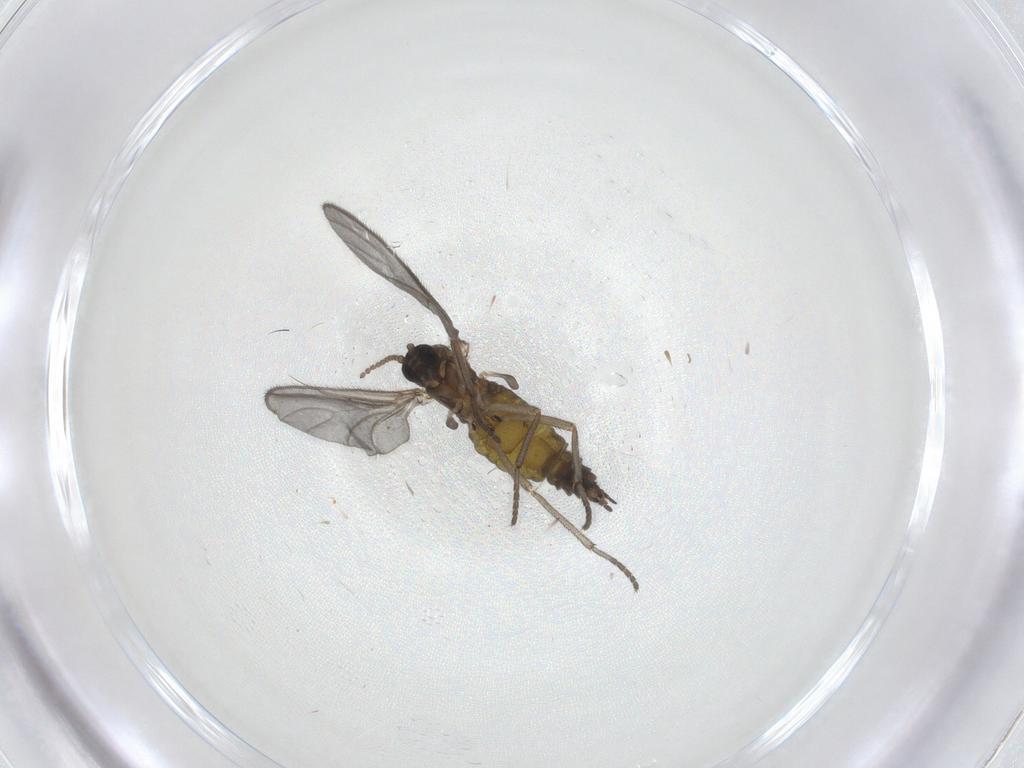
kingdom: Animalia
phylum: Arthropoda
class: Insecta
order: Diptera
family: Sciaridae
